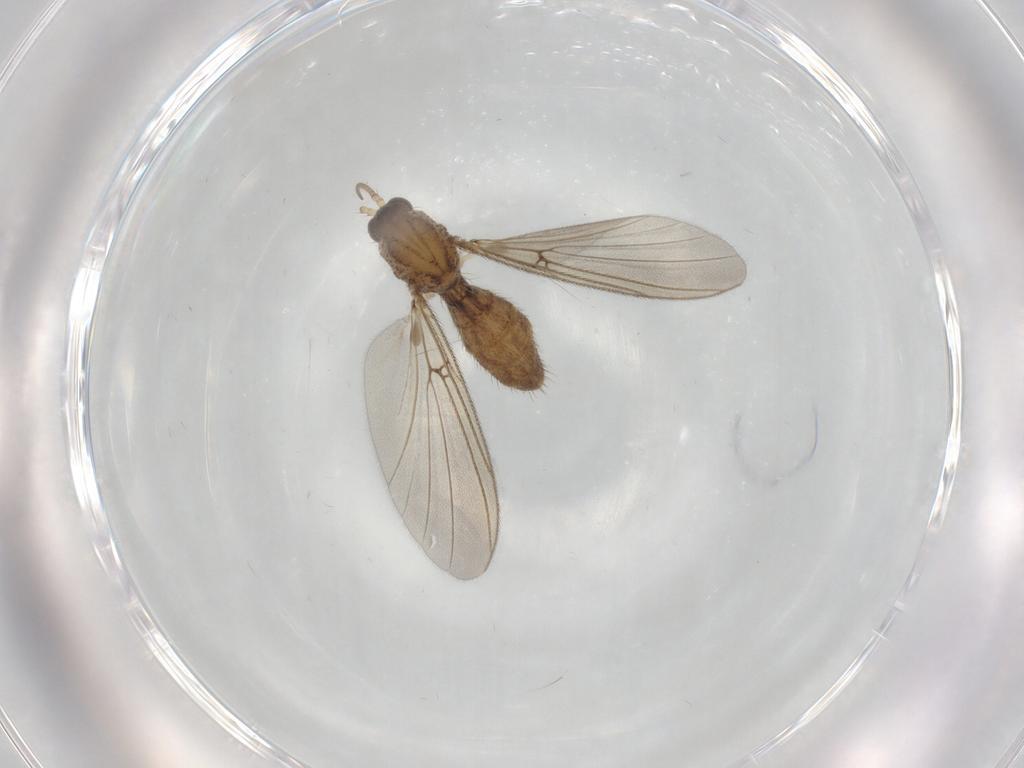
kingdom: Animalia
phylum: Arthropoda
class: Insecta
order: Diptera
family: Mycetophilidae
